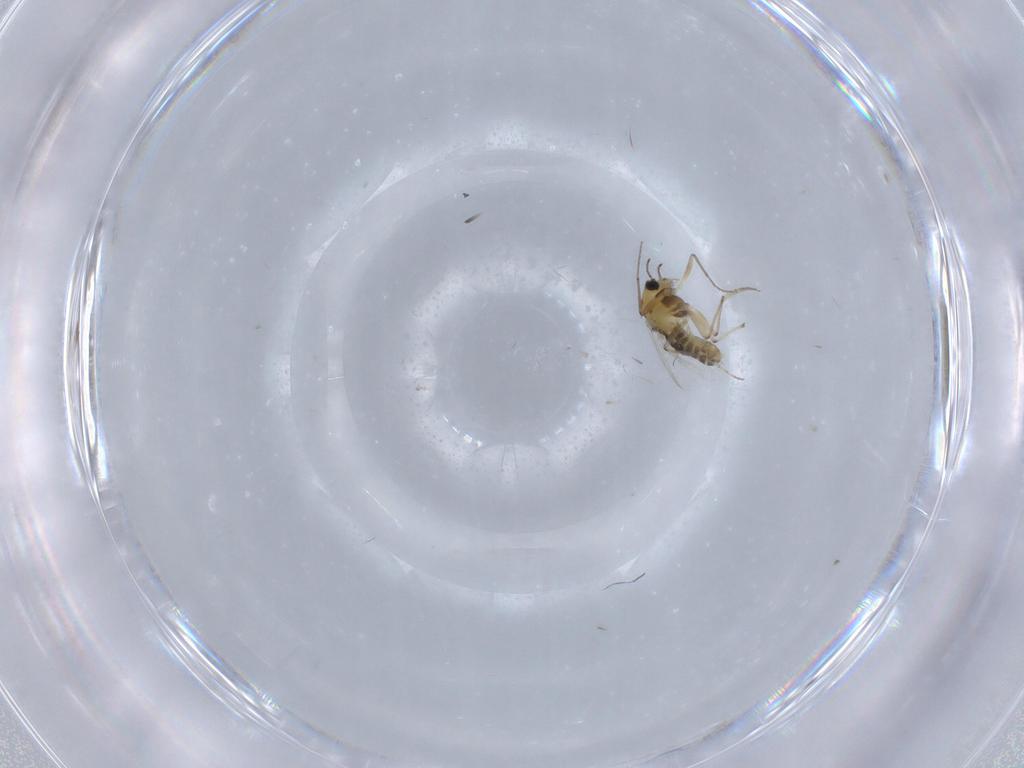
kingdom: Animalia
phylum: Arthropoda
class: Insecta
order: Diptera
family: Chironomidae
